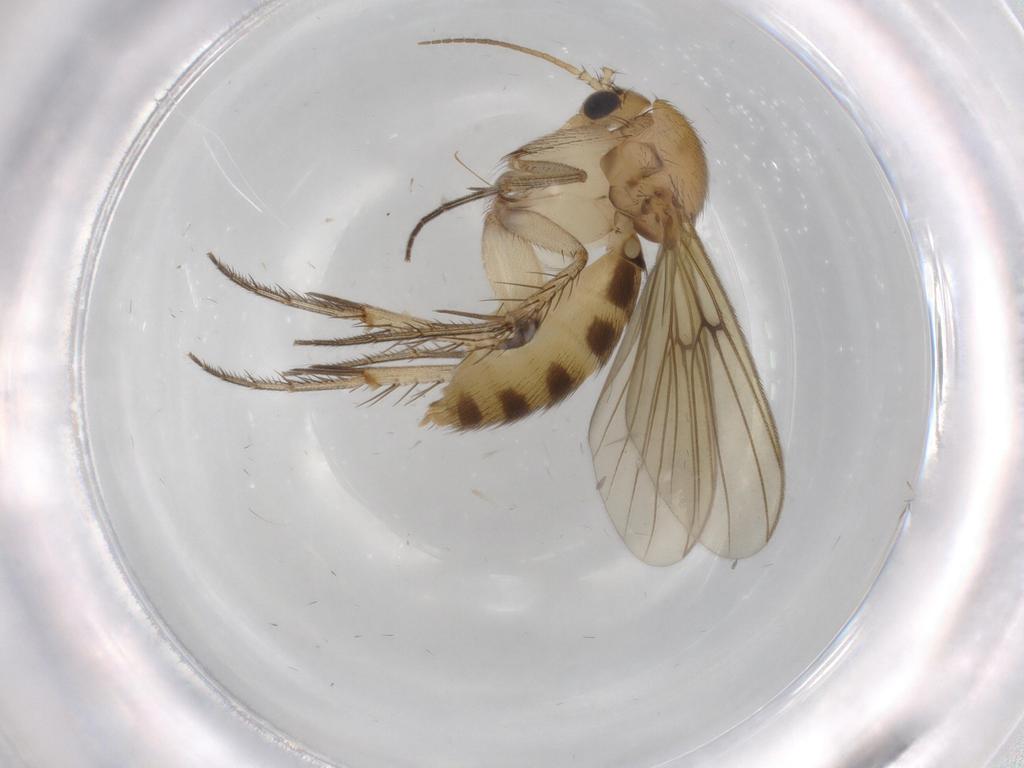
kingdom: Animalia
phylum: Arthropoda
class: Insecta
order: Diptera
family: Chironomidae
